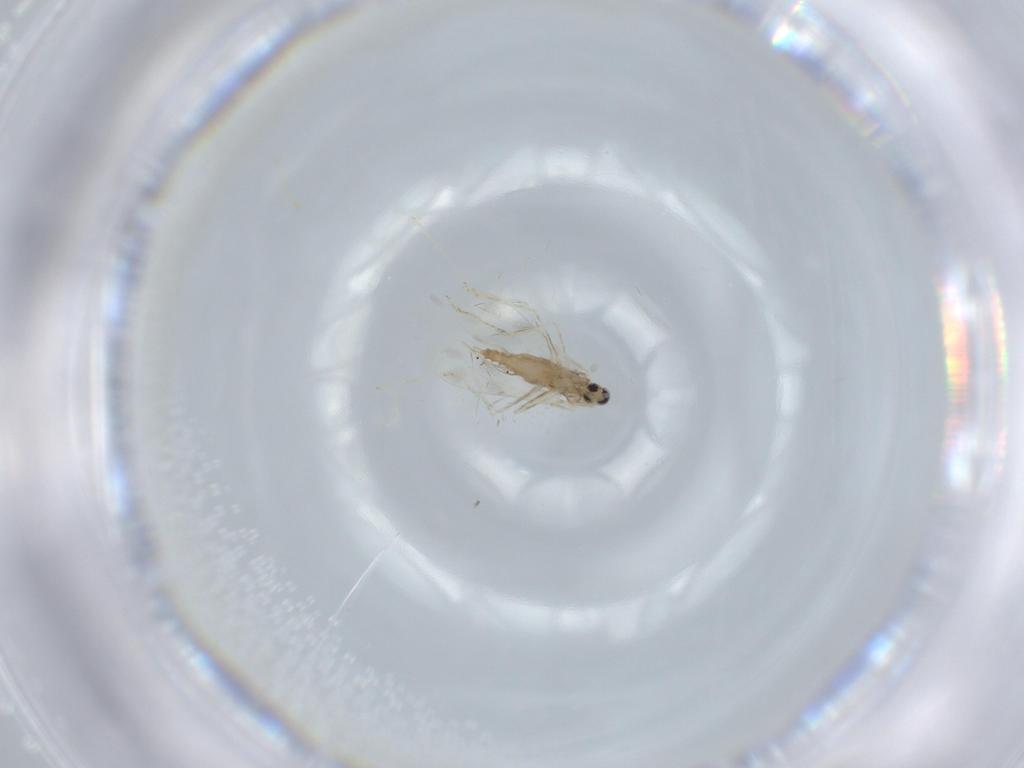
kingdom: Animalia
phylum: Arthropoda
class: Insecta
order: Diptera
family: Cecidomyiidae
